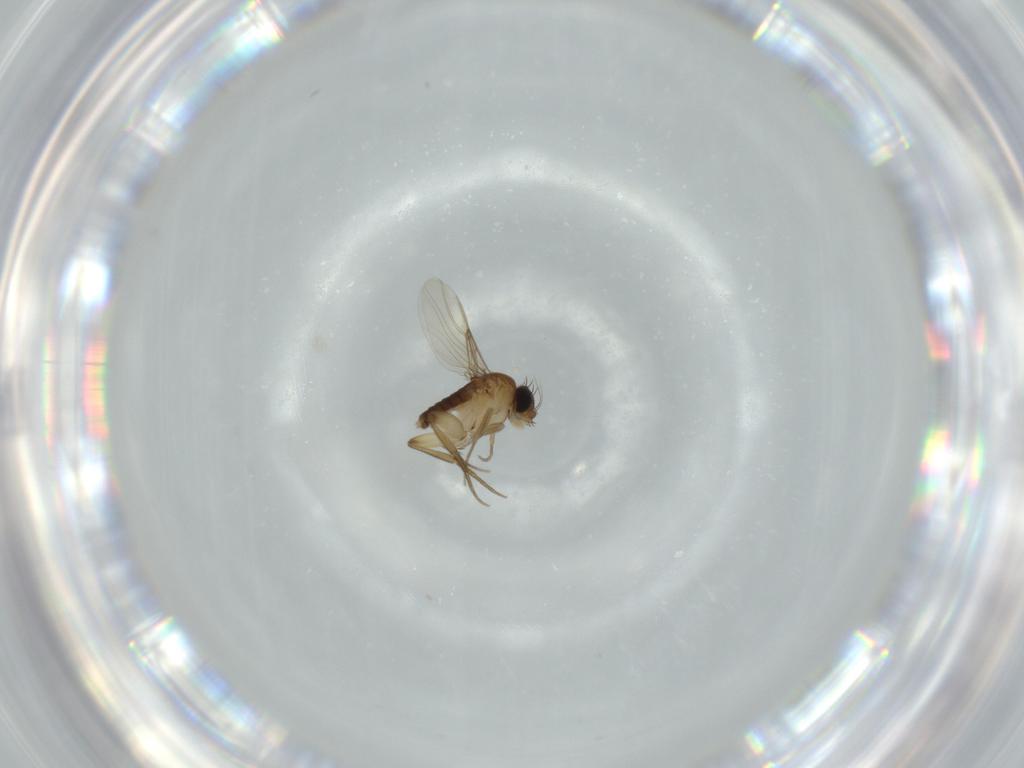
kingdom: Animalia
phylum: Arthropoda
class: Insecta
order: Diptera
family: Phoridae
